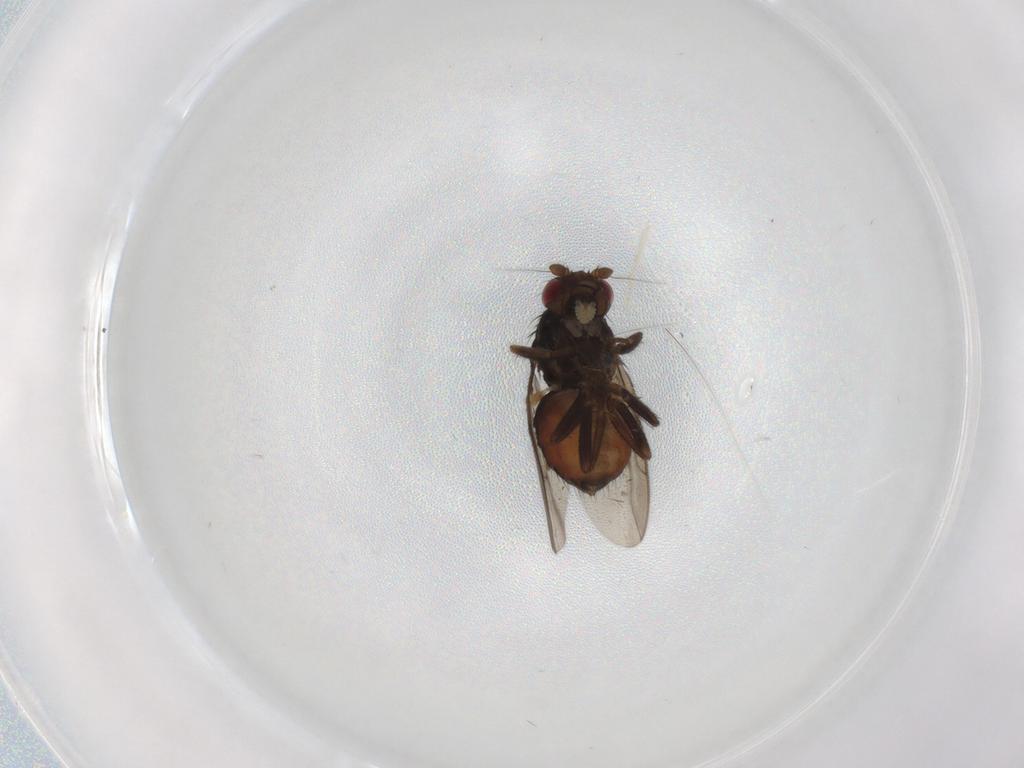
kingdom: Animalia
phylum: Arthropoda
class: Insecta
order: Diptera
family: Sphaeroceridae
